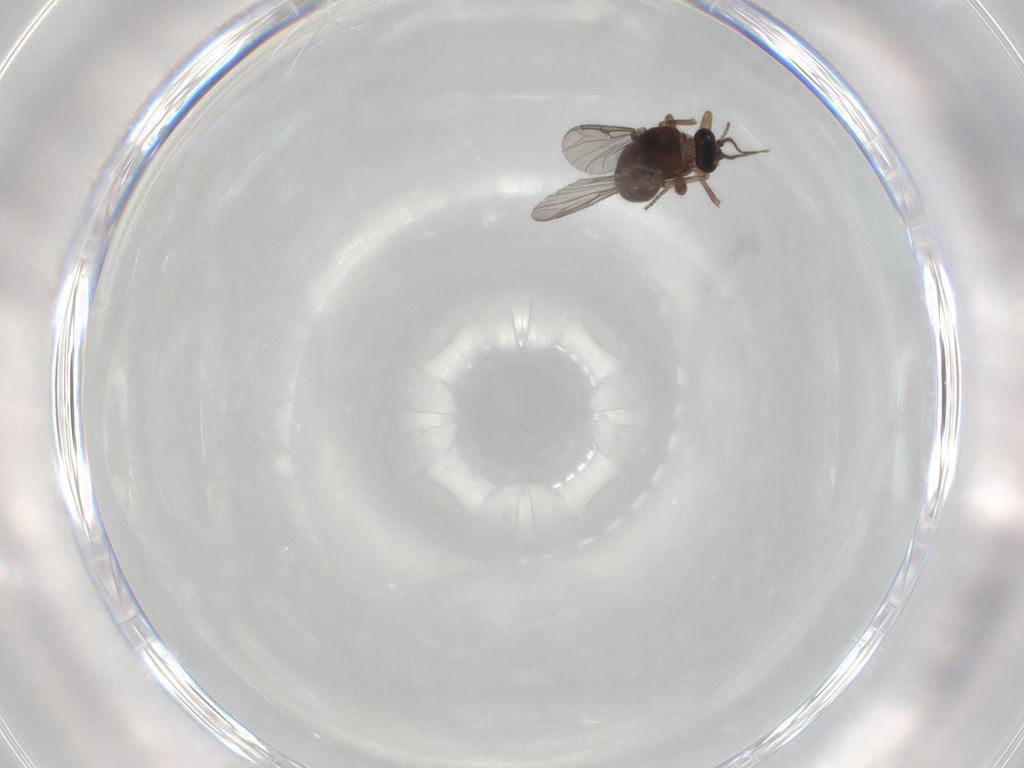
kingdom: Animalia
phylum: Arthropoda
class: Insecta
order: Diptera
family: Ceratopogonidae
